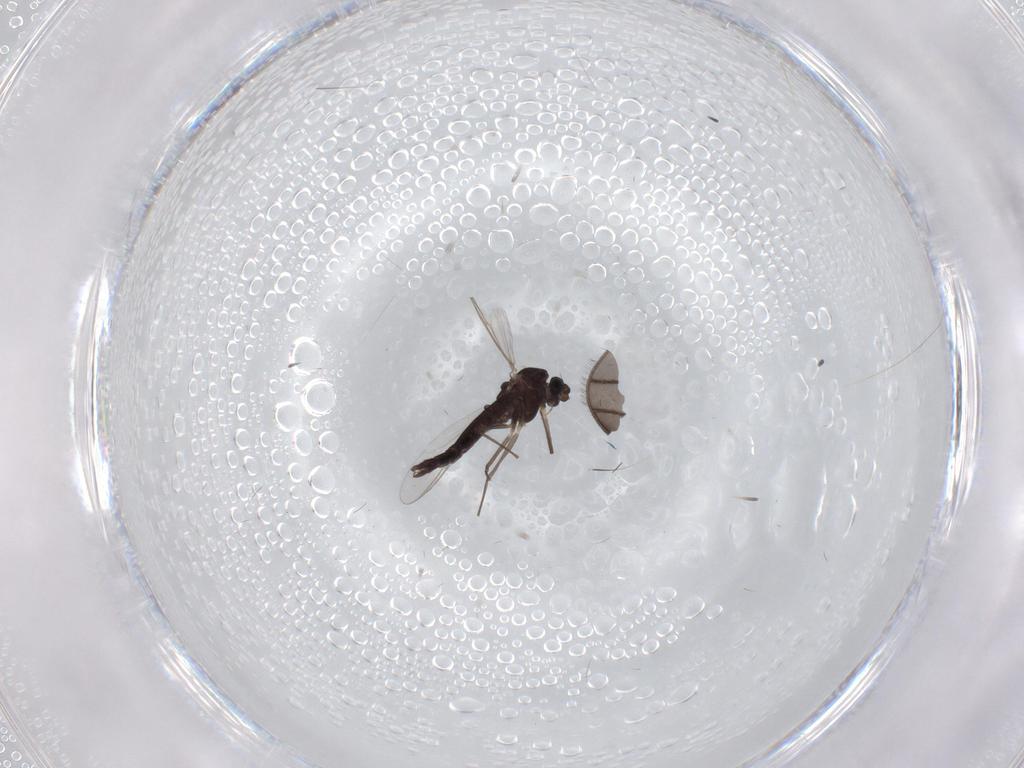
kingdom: Animalia
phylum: Arthropoda
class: Insecta
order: Diptera
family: Chironomidae
